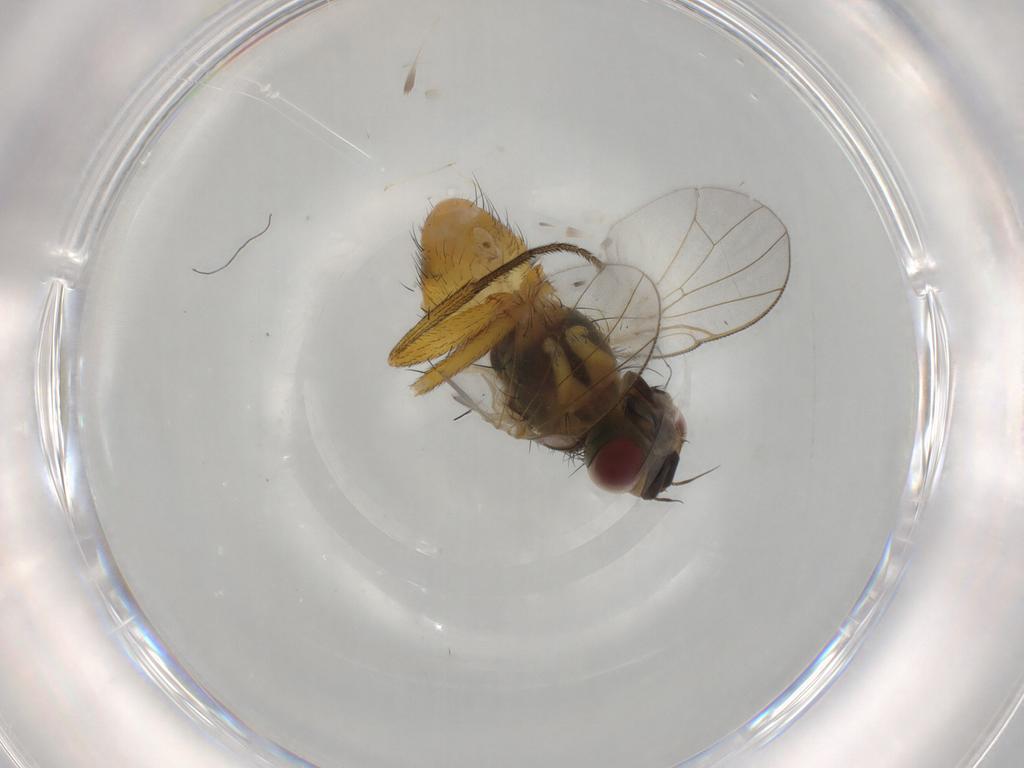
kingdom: Animalia
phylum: Arthropoda
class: Insecta
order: Diptera
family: Muscidae
